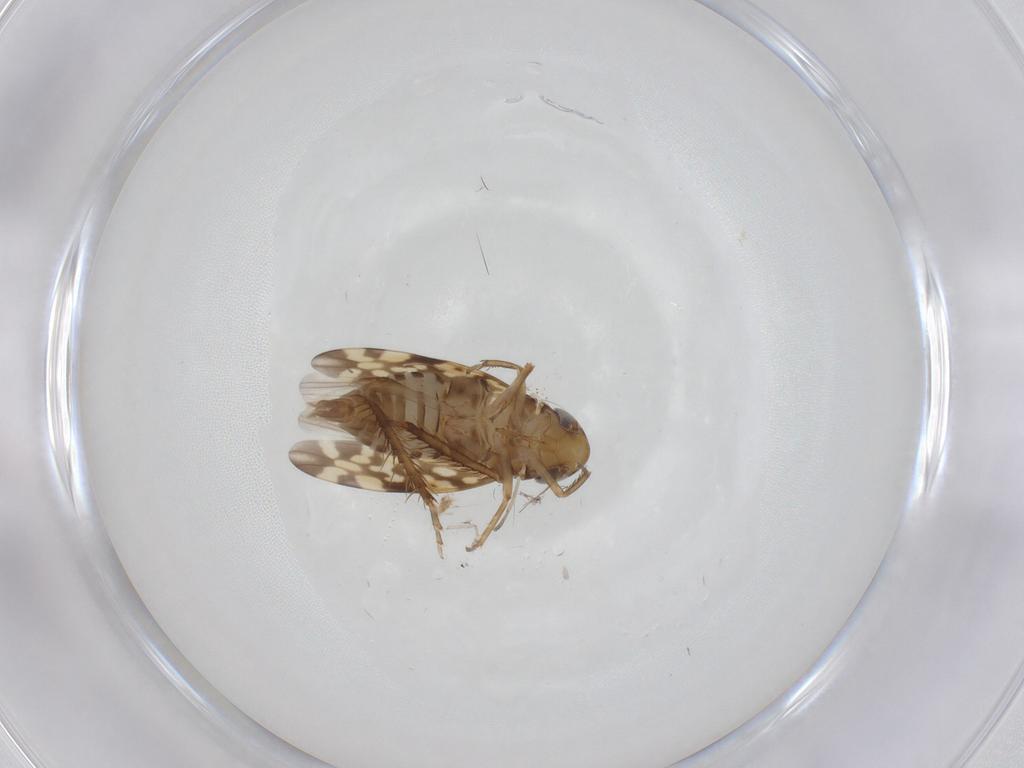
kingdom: Animalia
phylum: Arthropoda
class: Insecta
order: Hemiptera
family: Cicadellidae
